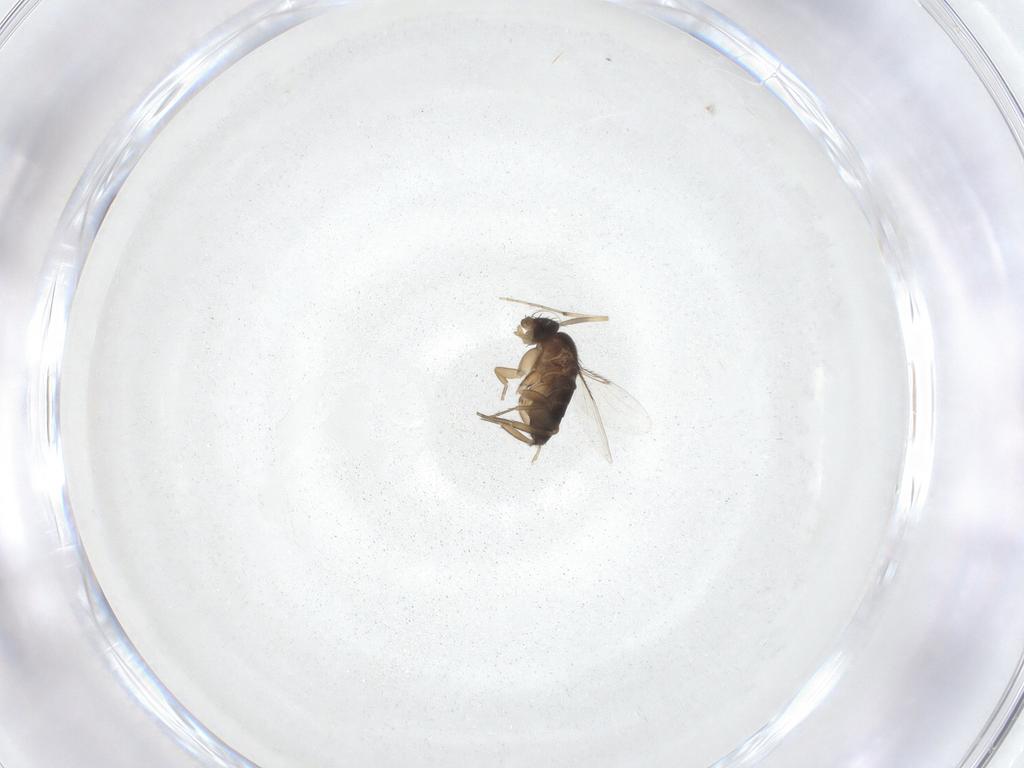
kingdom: Animalia
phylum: Arthropoda
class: Insecta
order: Diptera
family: Chironomidae
